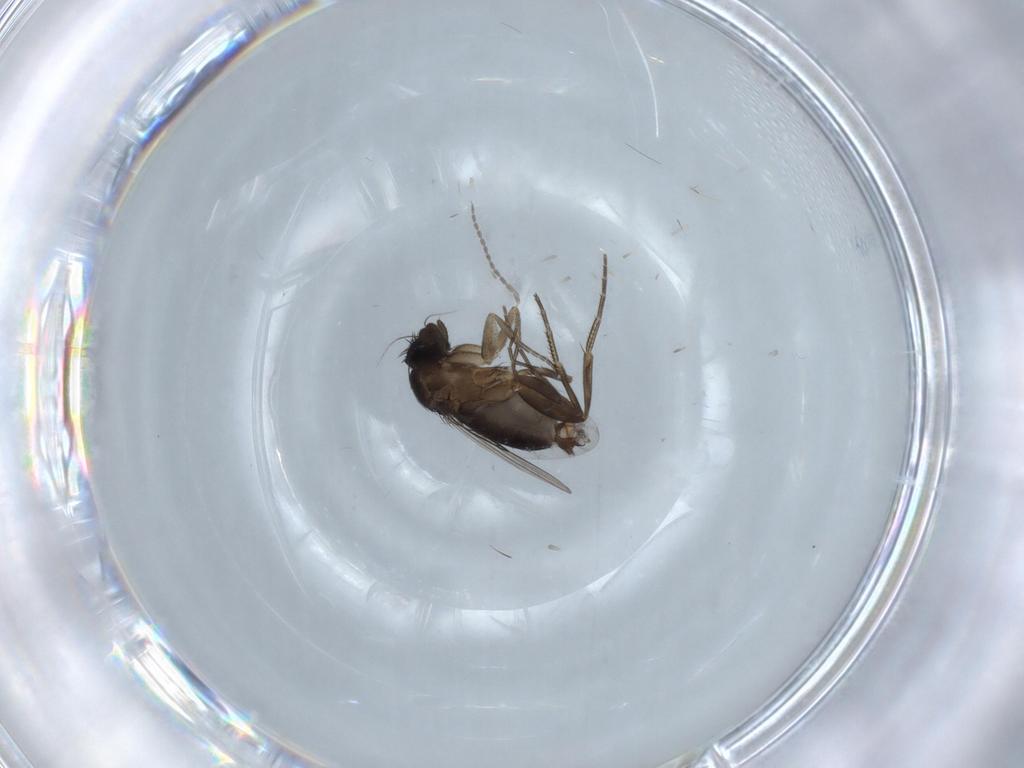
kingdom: Animalia
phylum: Arthropoda
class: Insecta
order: Diptera
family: Phoridae
